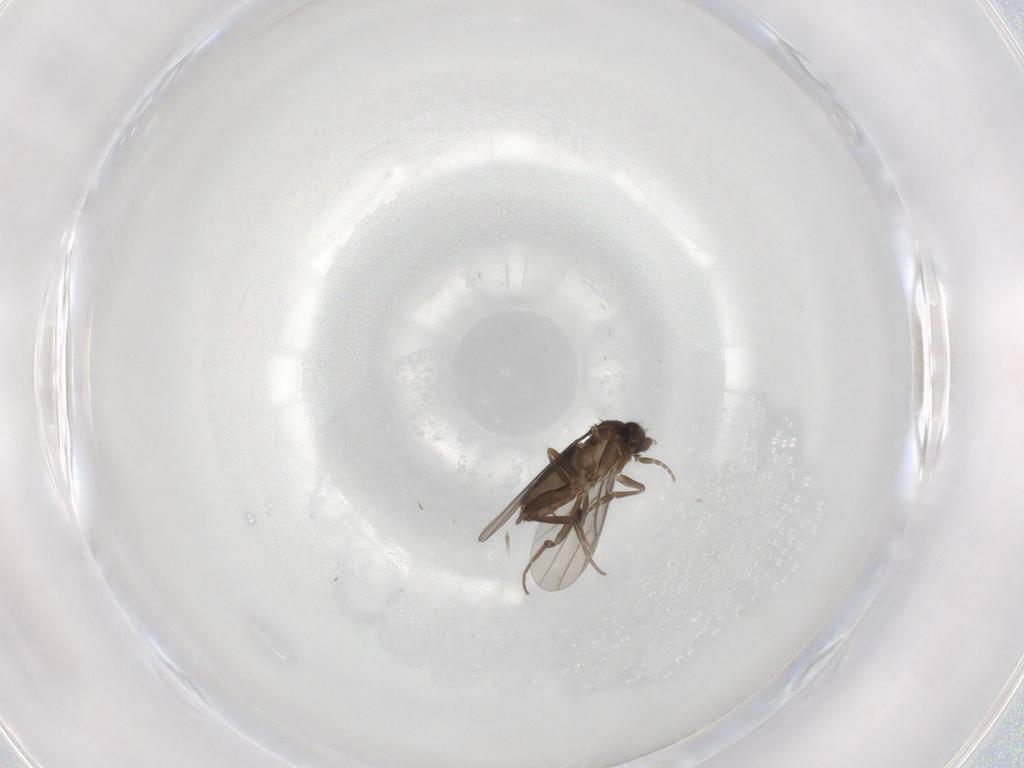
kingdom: Animalia
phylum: Arthropoda
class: Insecta
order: Diptera
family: Phoridae
